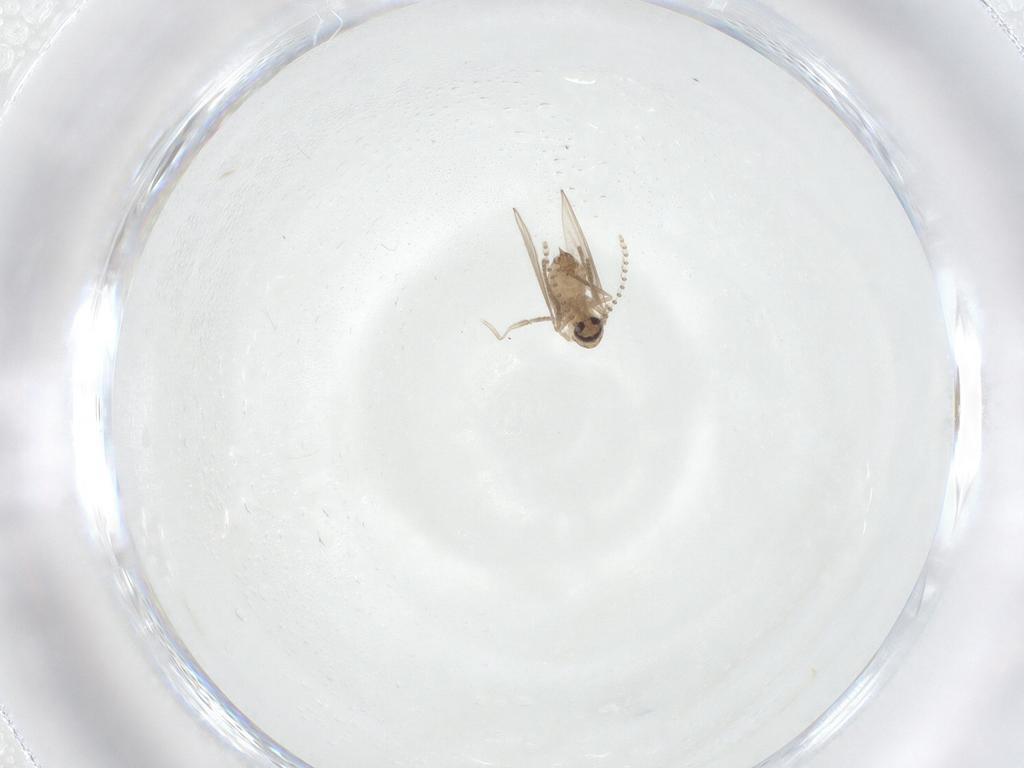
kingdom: Animalia
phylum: Arthropoda
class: Insecta
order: Diptera
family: Psychodidae
